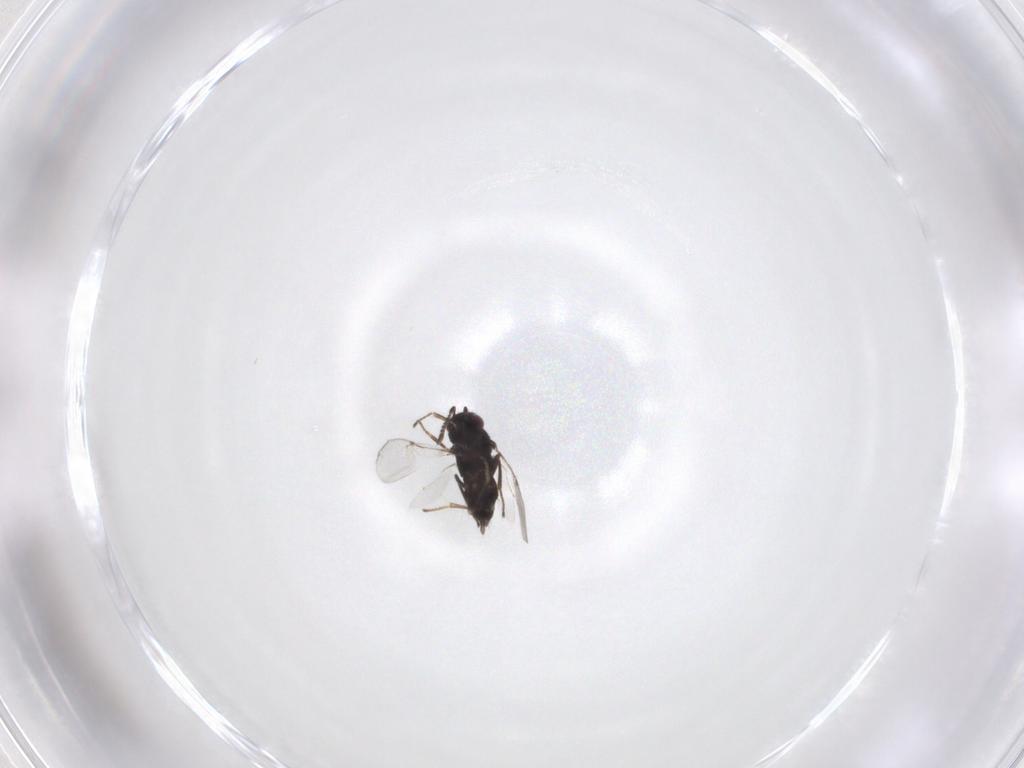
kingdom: Animalia
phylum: Arthropoda
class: Insecta
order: Hymenoptera
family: Encyrtidae
